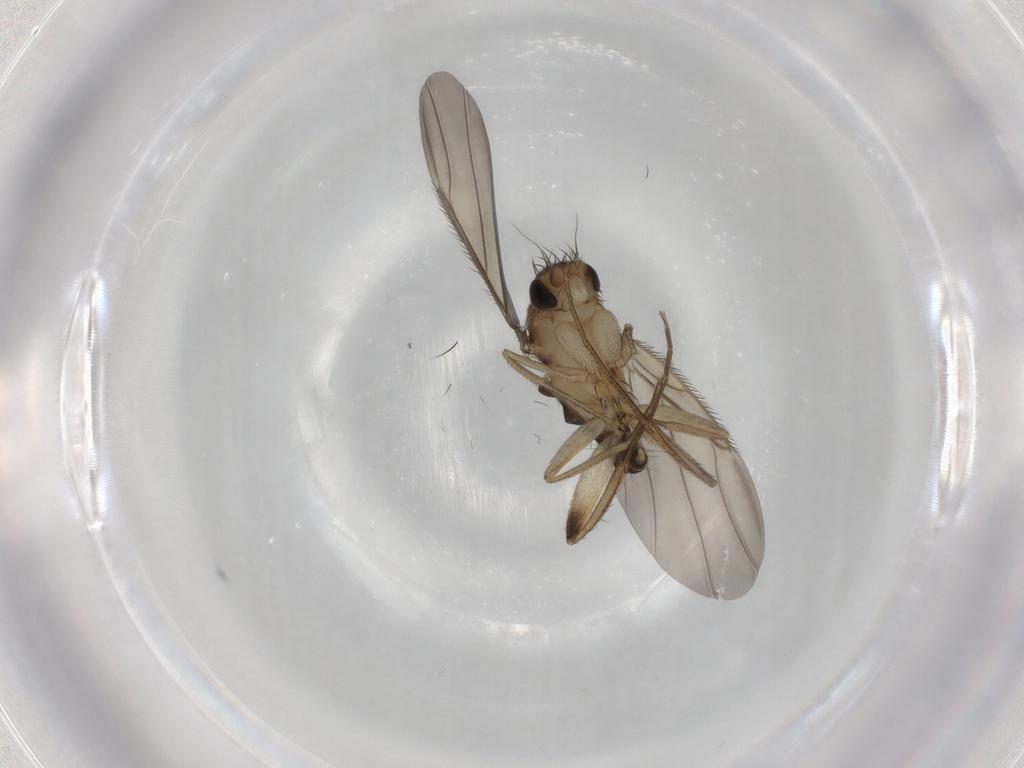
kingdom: Animalia
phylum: Arthropoda
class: Insecta
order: Diptera
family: Phoridae
